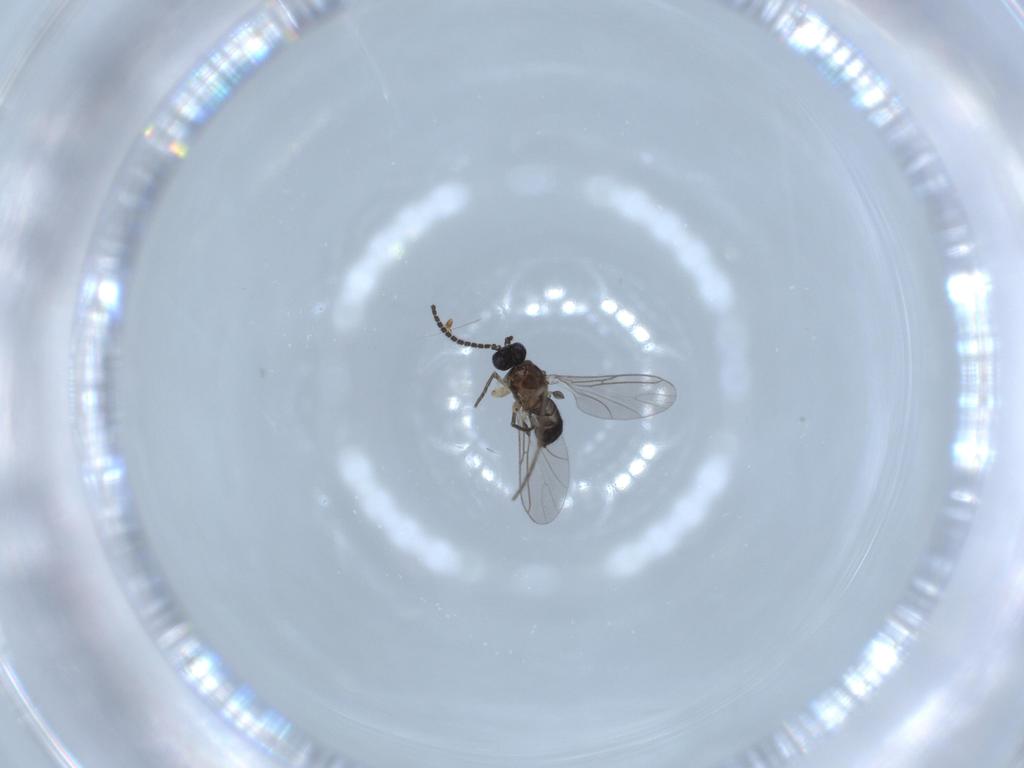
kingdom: Animalia
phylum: Arthropoda
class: Insecta
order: Diptera
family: Sciaridae
